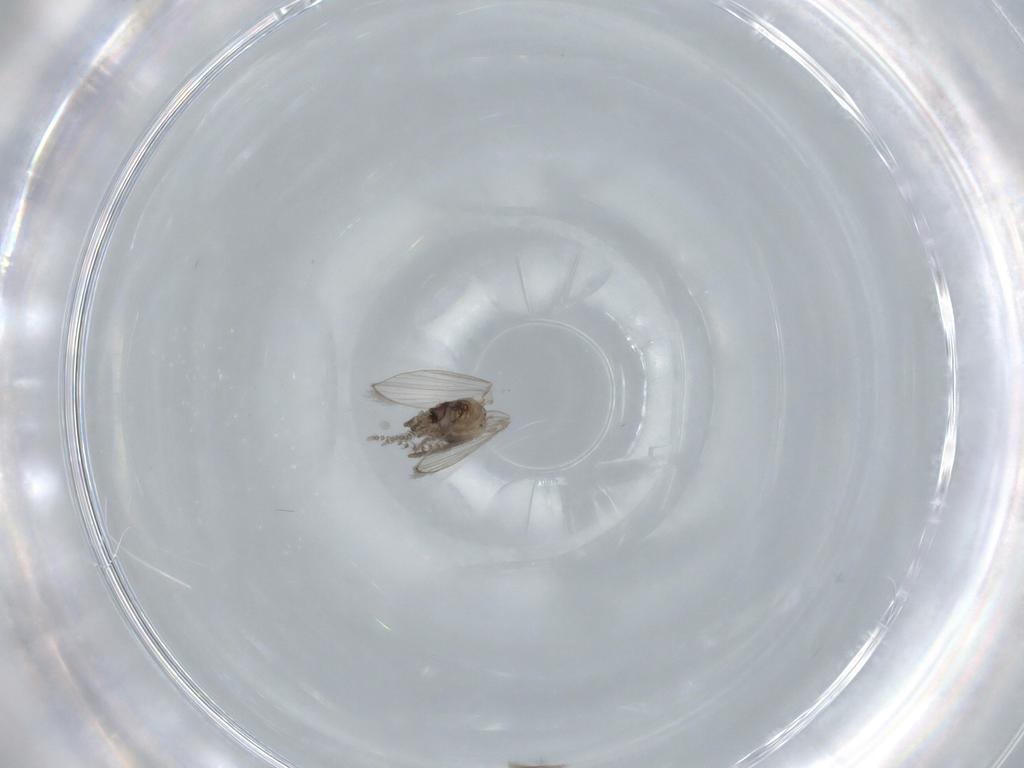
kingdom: Animalia
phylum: Arthropoda
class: Insecta
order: Diptera
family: Psychodidae
